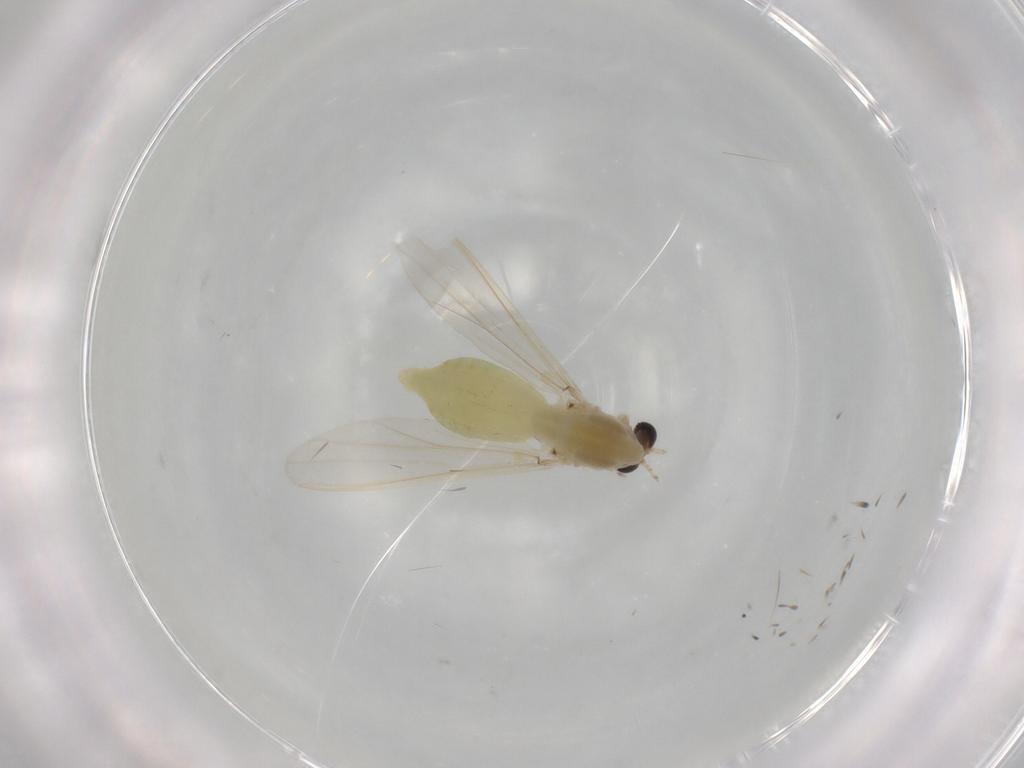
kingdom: Animalia
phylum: Arthropoda
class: Insecta
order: Diptera
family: Chironomidae
